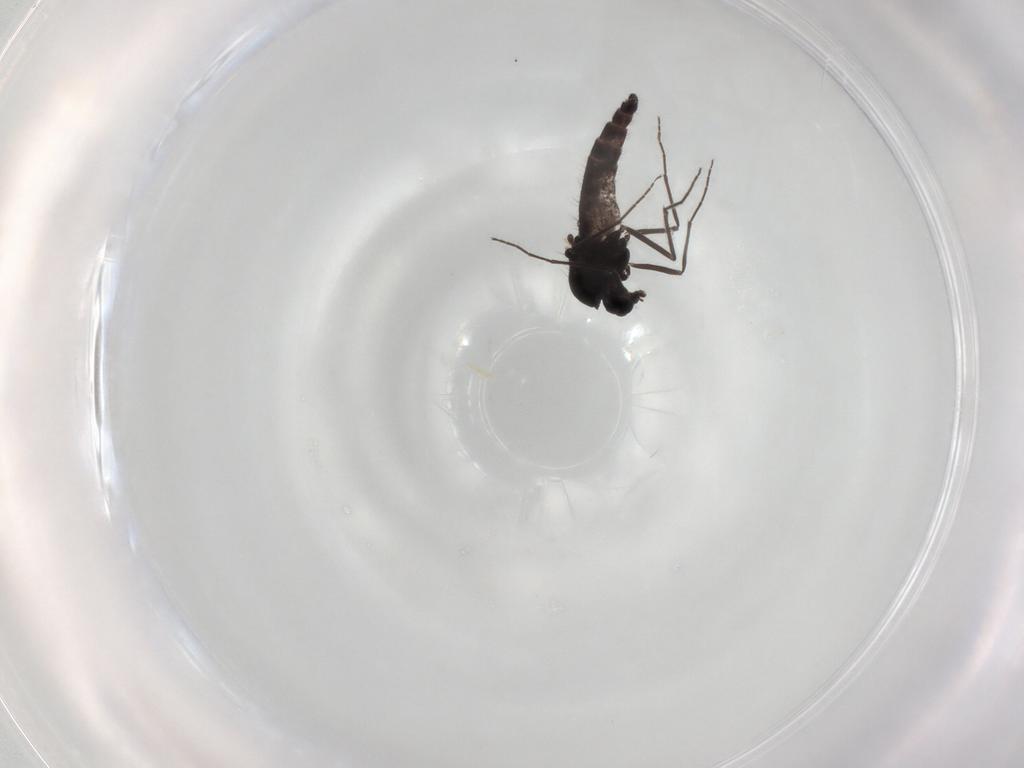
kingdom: Animalia
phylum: Arthropoda
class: Insecta
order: Diptera
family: Chironomidae
